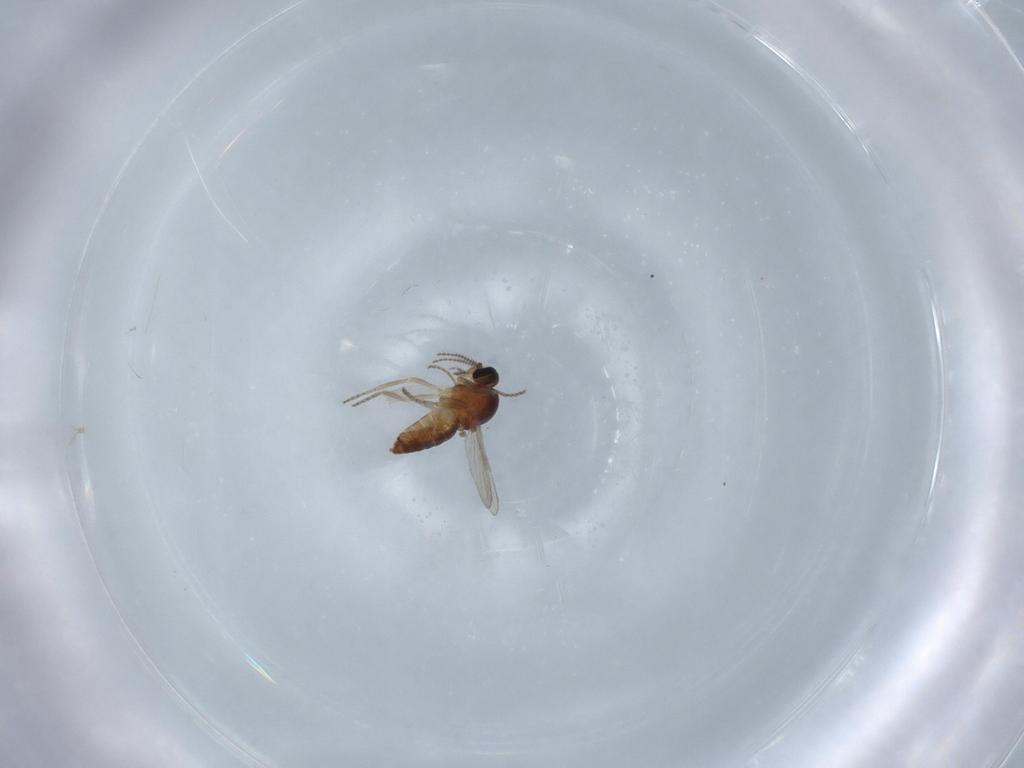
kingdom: Animalia
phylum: Arthropoda
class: Insecta
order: Diptera
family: Ceratopogonidae
